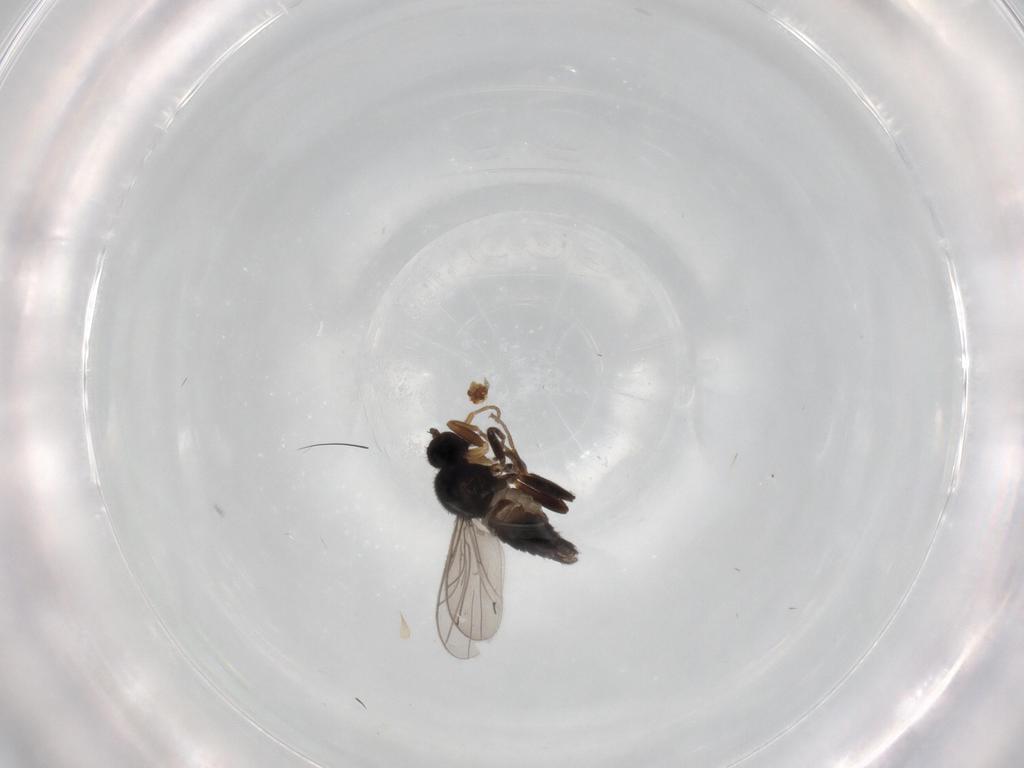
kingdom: Animalia
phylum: Arthropoda
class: Insecta
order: Diptera
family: Hybotidae
